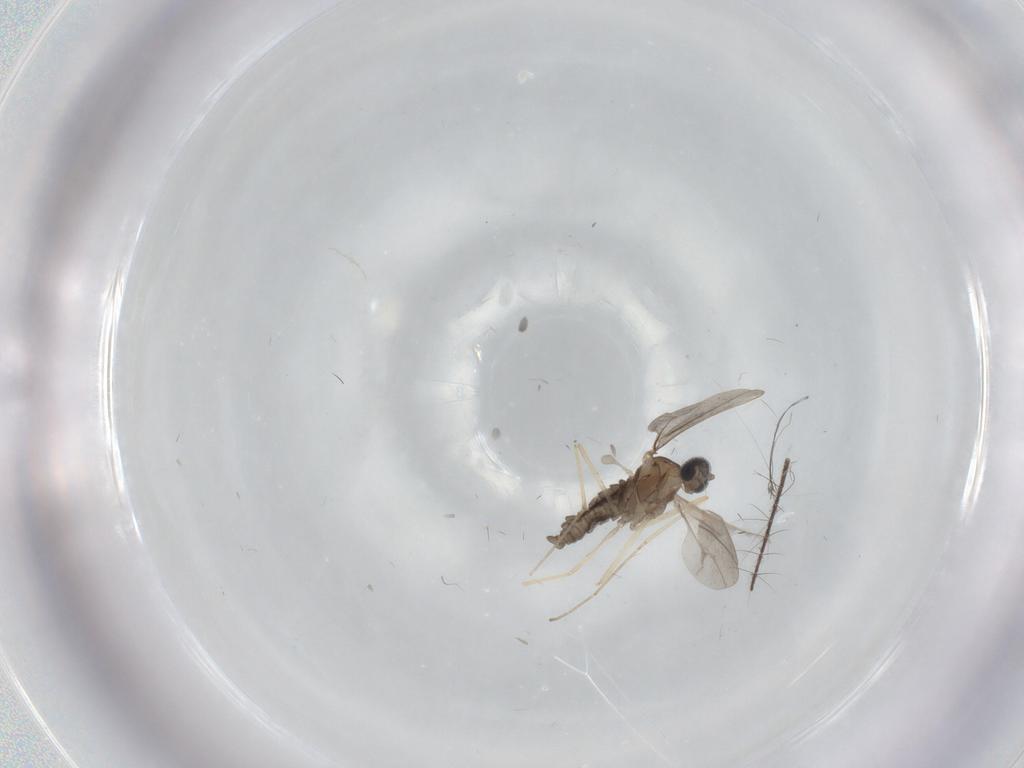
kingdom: Animalia
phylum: Arthropoda
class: Insecta
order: Diptera
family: Culicidae
